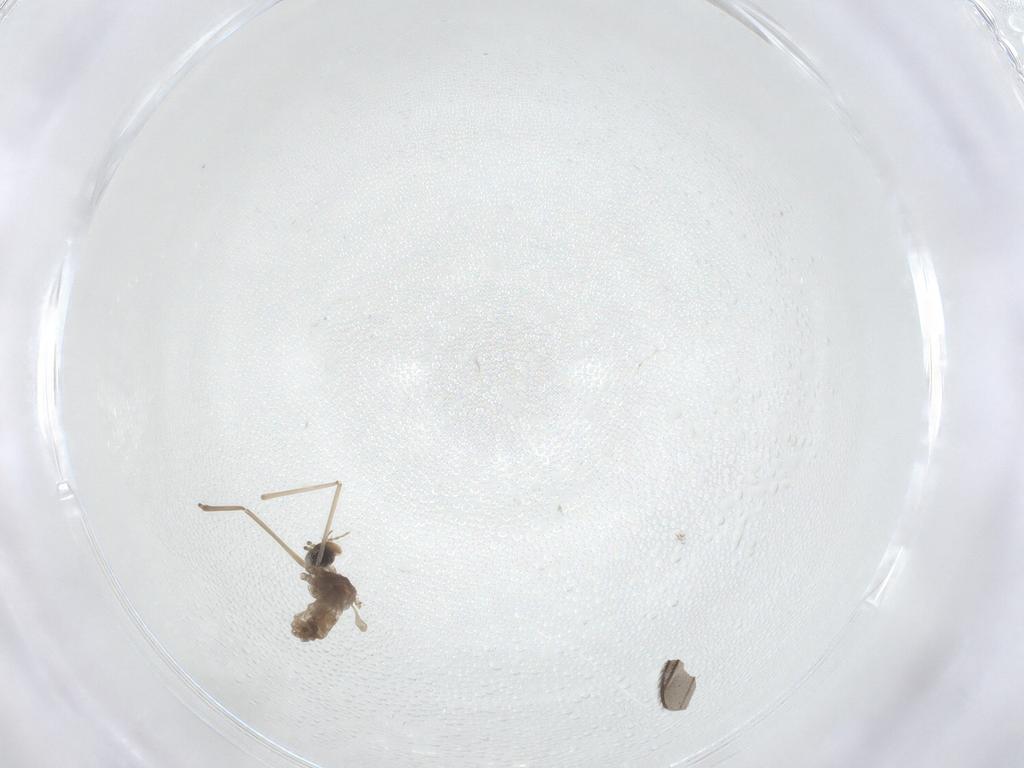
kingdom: Animalia
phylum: Arthropoda
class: Insecta
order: Diptera
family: Cecidomyiidae
